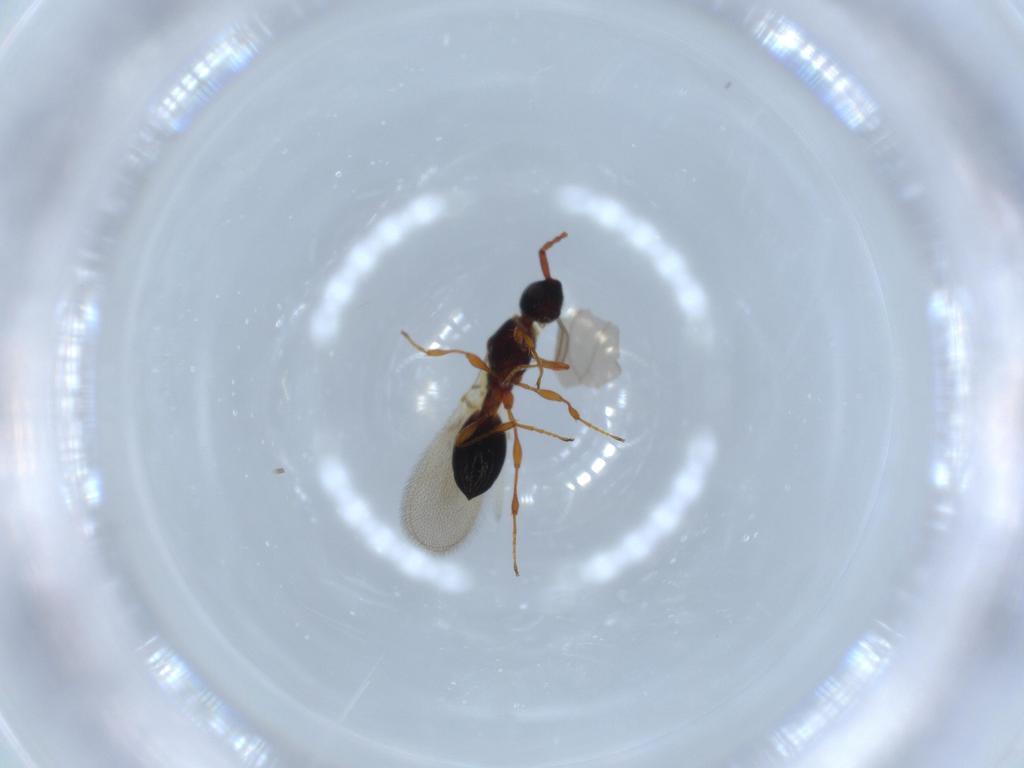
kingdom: Animalia
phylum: Arthropoda
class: Insecta
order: Hymenoptera
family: Diapriidae
